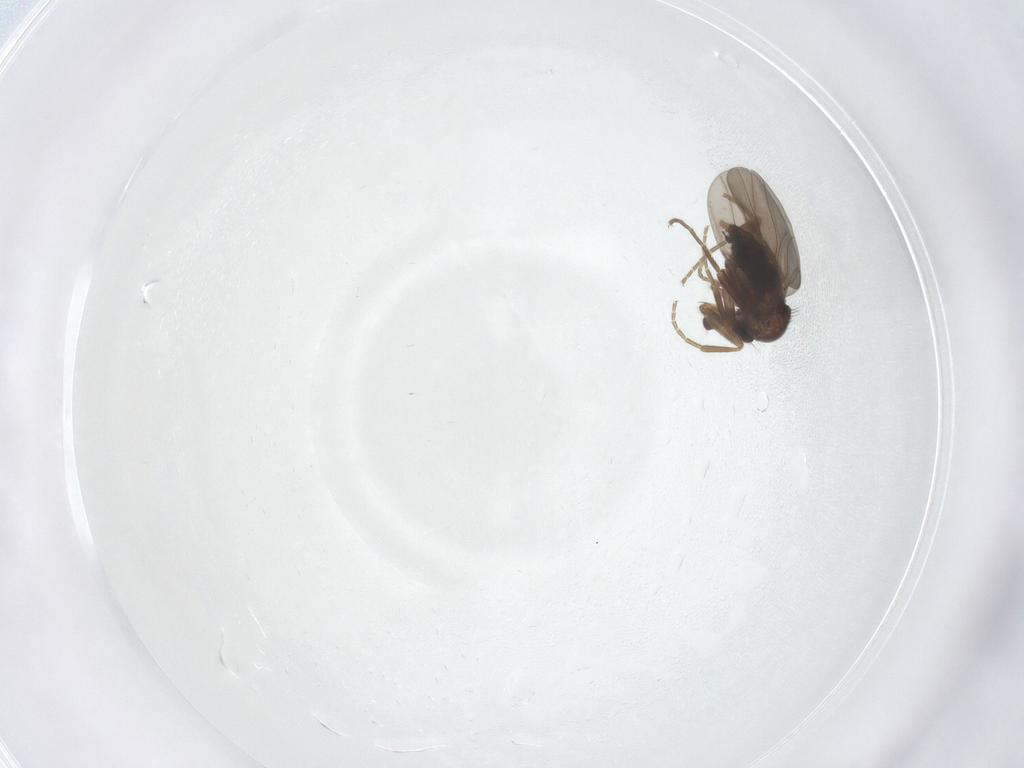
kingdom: Animalia
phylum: Arthropoda
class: Insecta
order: Diptera
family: Phoridae
